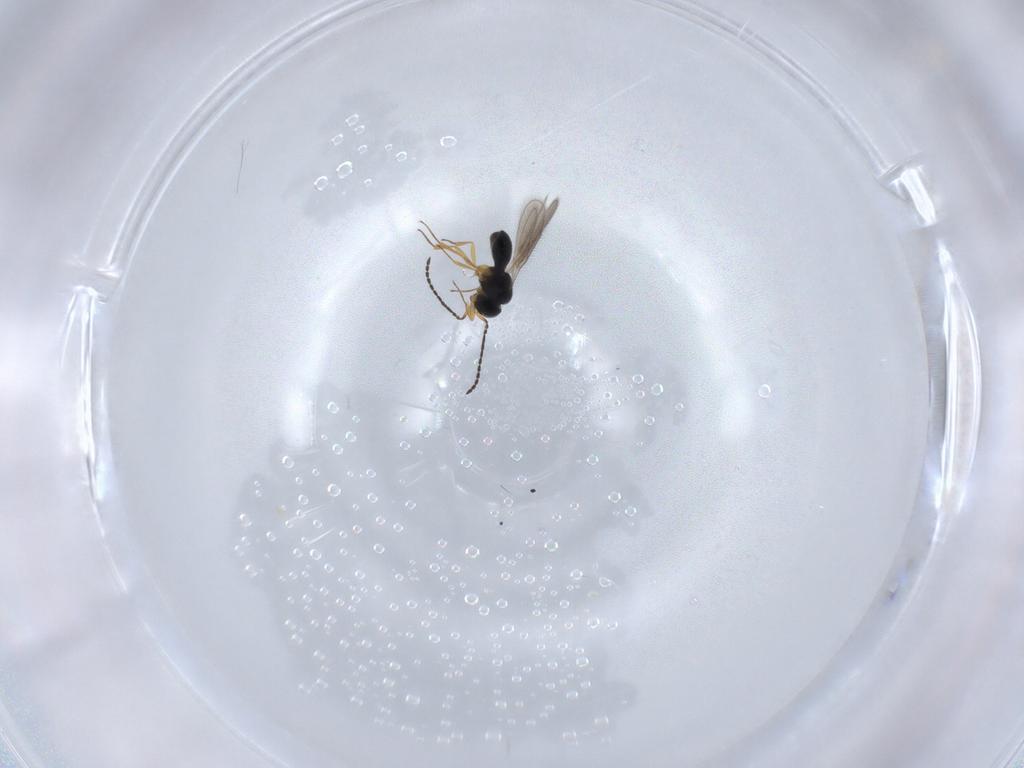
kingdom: Animalia
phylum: Arthropoda
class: Insecta
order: Hymenoptera
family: Scelionidae
